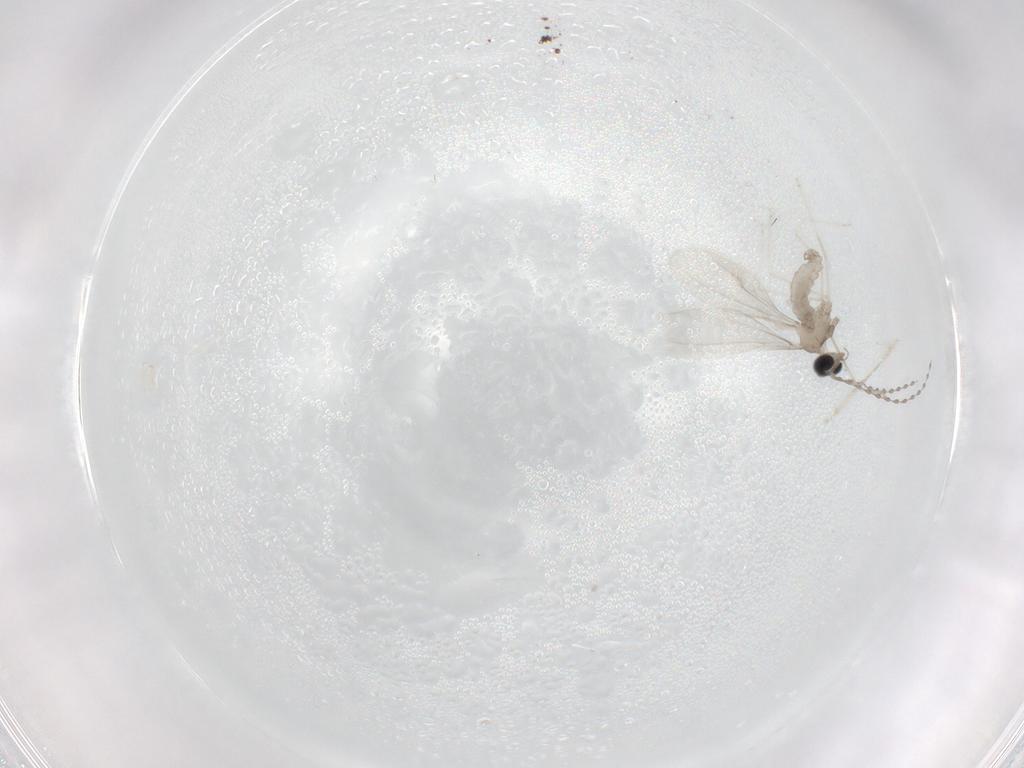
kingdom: Animalia
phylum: Arthropoda
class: Insecta
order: Diptera
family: Cecidomyiidae
